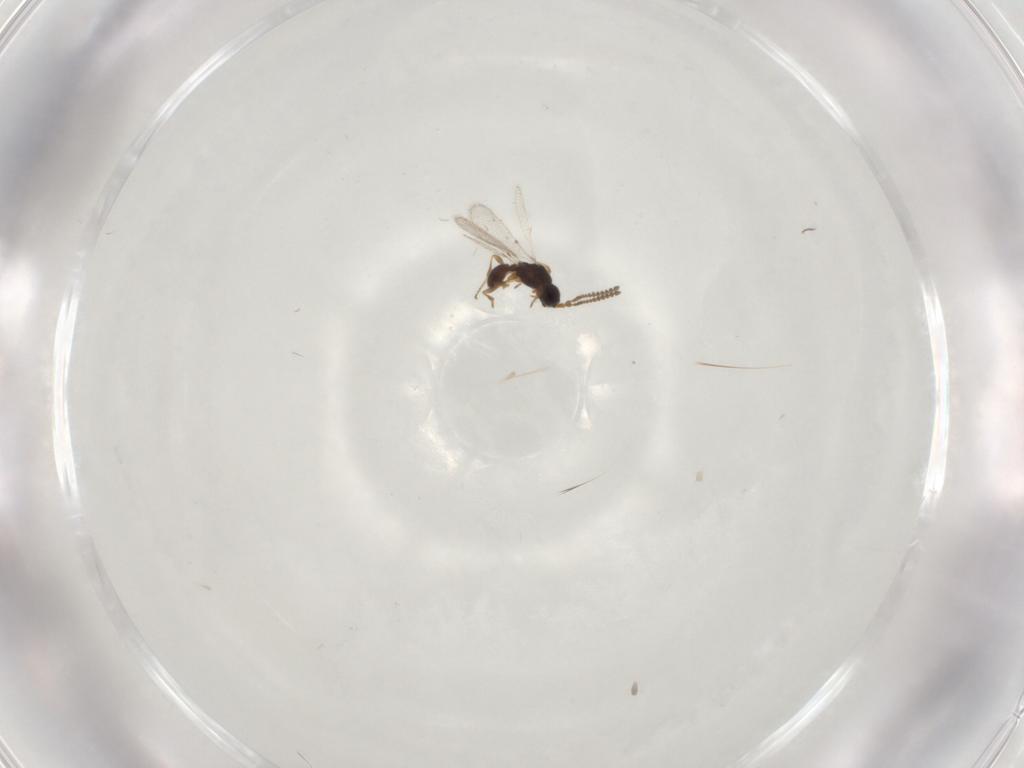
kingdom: Animalia
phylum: Arthropoda
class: Insecta
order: Hymenoptera
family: Diapriidae
